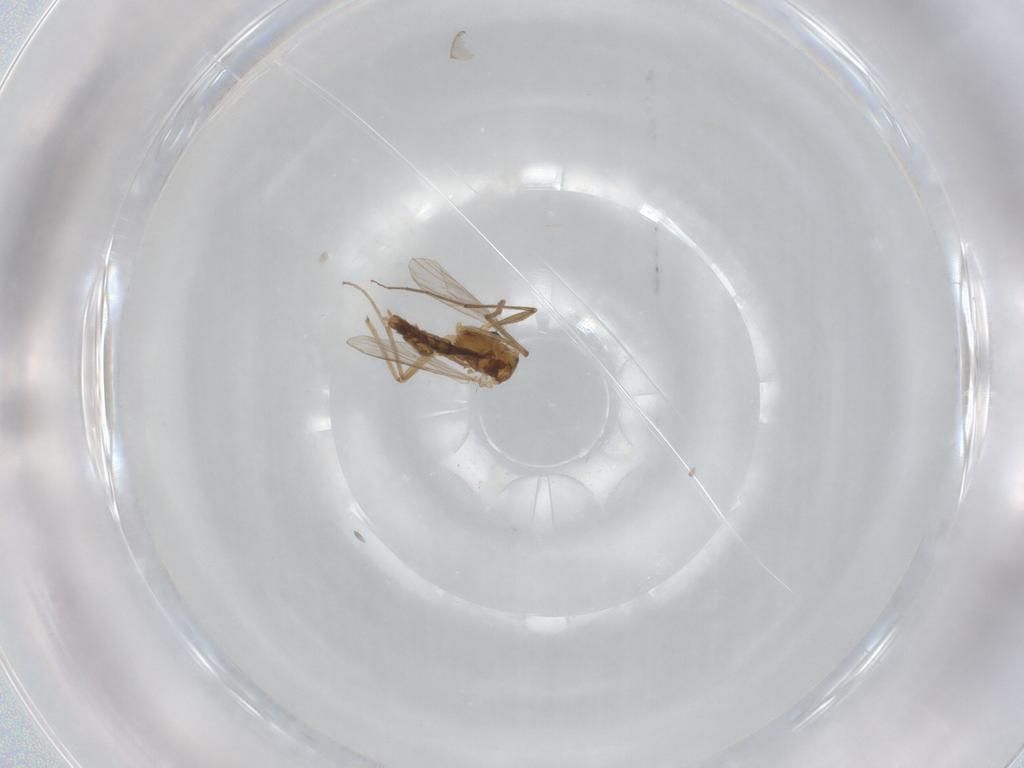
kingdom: Animalia
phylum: Arthropoda
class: Insecta
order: Diptera
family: Chironomidae
